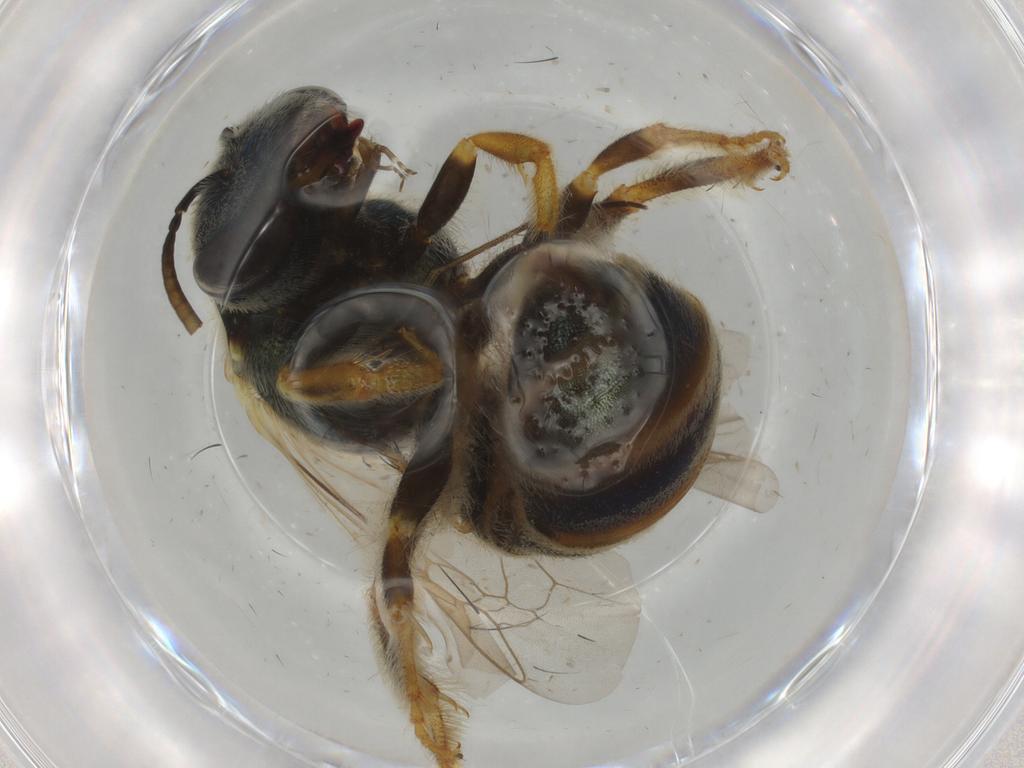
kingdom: Animalia
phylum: Arthropoda
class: Insecta
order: Hymenoptera
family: Halictidae
